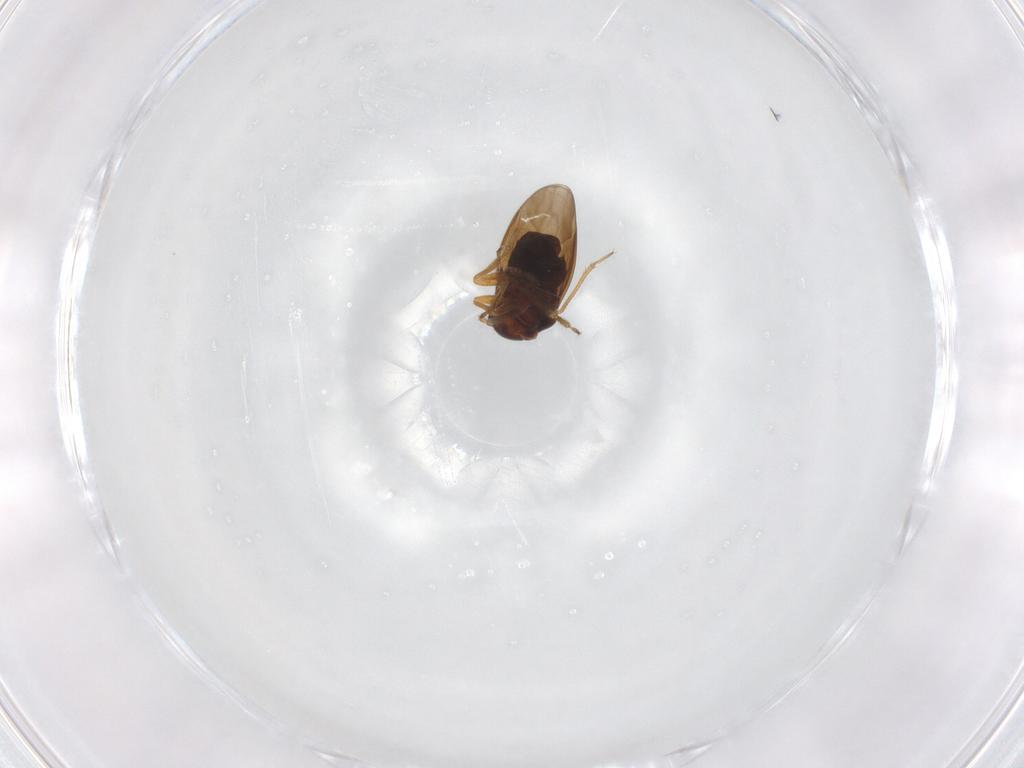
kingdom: Animalia
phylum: Arthropoda
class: Insecta
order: Hemiptera
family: Schizopteridae
